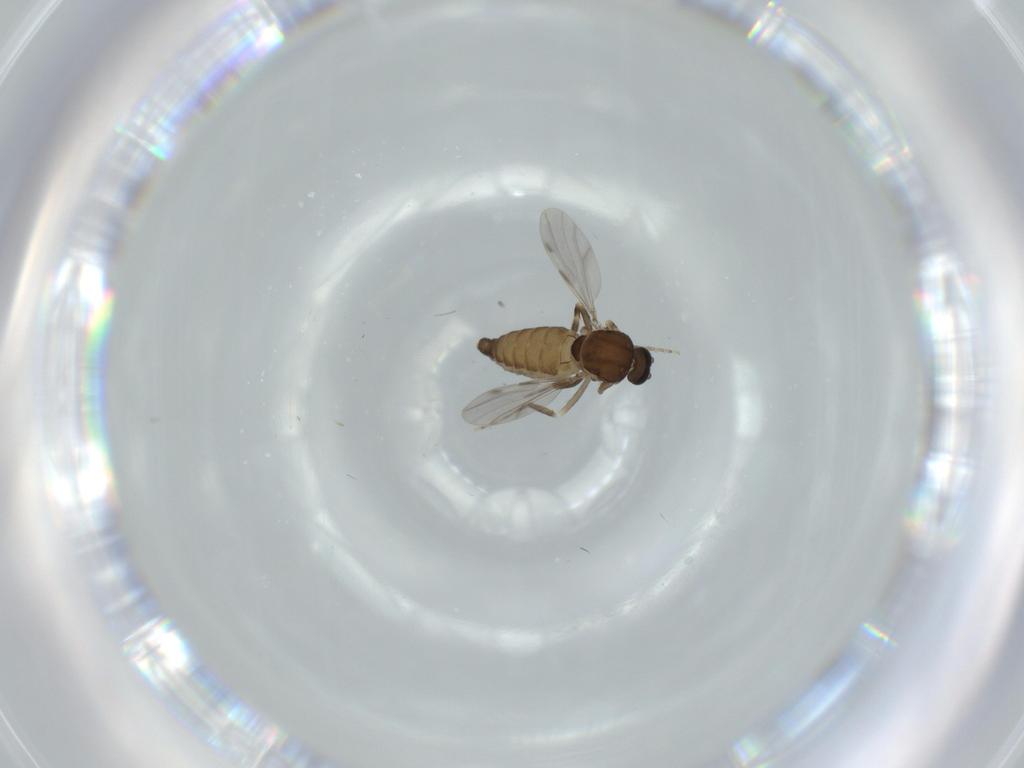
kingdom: Animalia
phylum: Arthropoda
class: Insecta
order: Diptera
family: Ceratopogonidae
